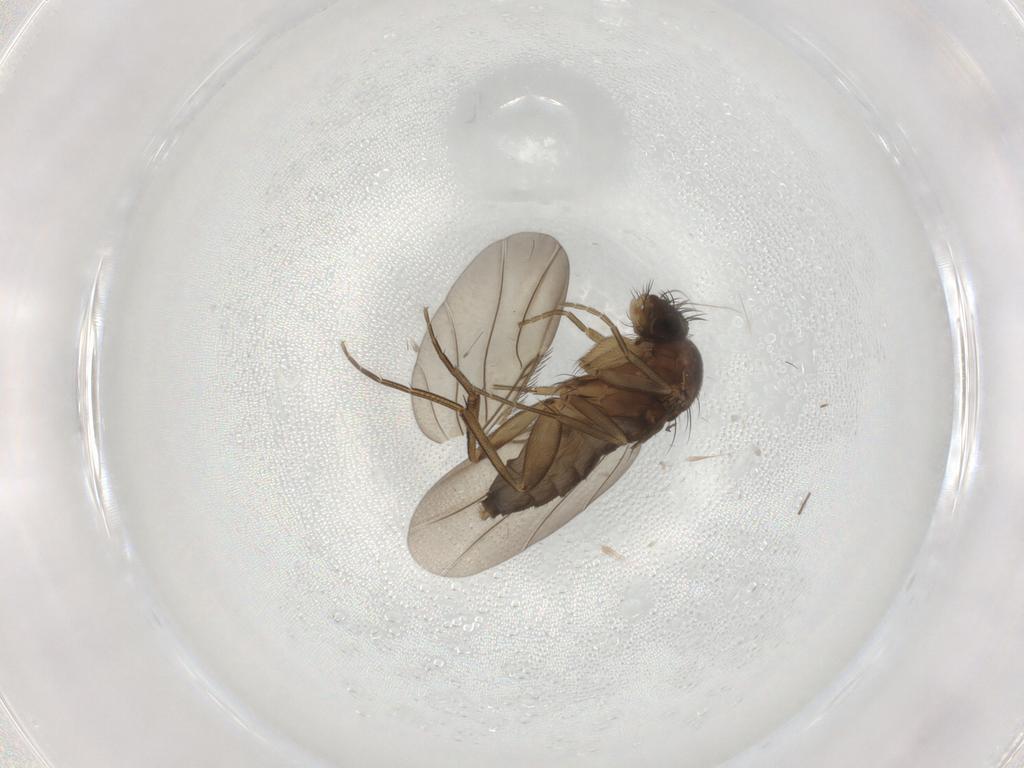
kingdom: Animalia
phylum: Arthropoda
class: Insecta
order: Diptera
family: Phoridae
